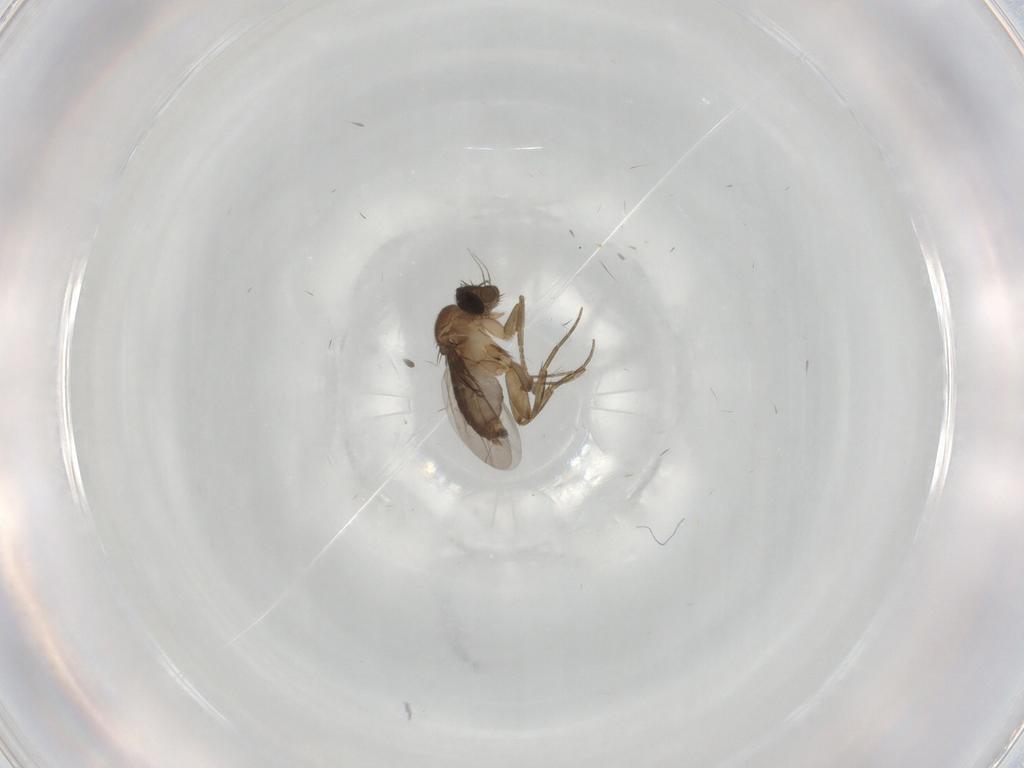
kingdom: Animalia
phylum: Arthropoda
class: Insecta
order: Diptera
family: Phoridae
